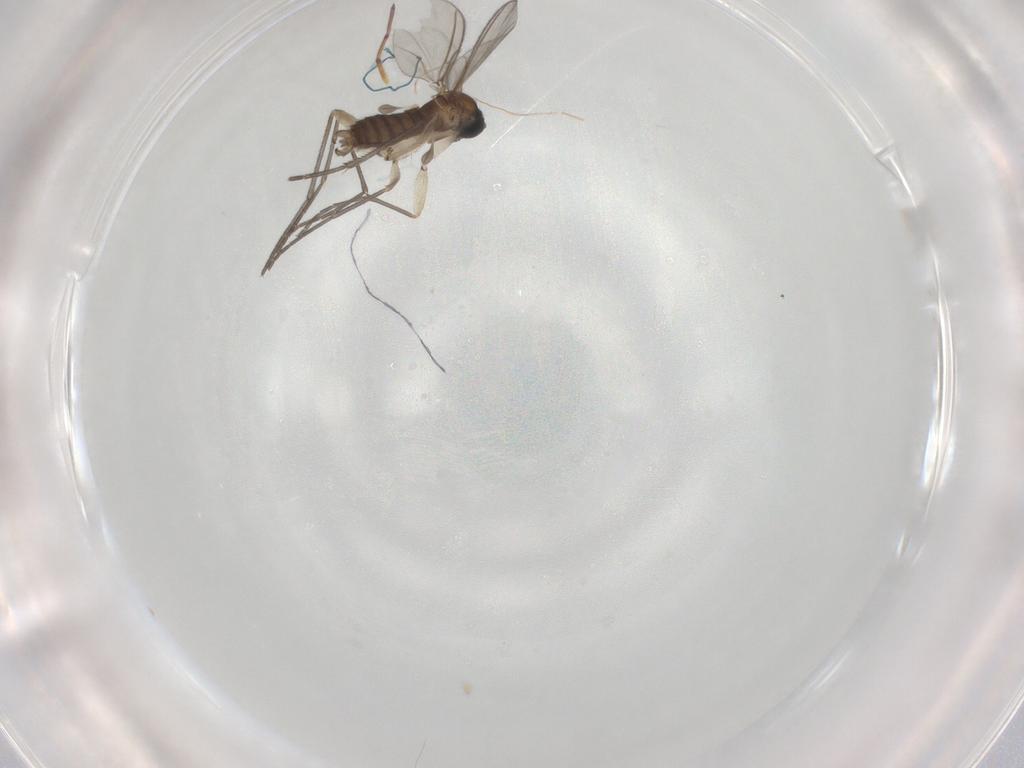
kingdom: Animalia
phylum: Arthropoda
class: Insecta
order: Diptera
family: Sciaridae
